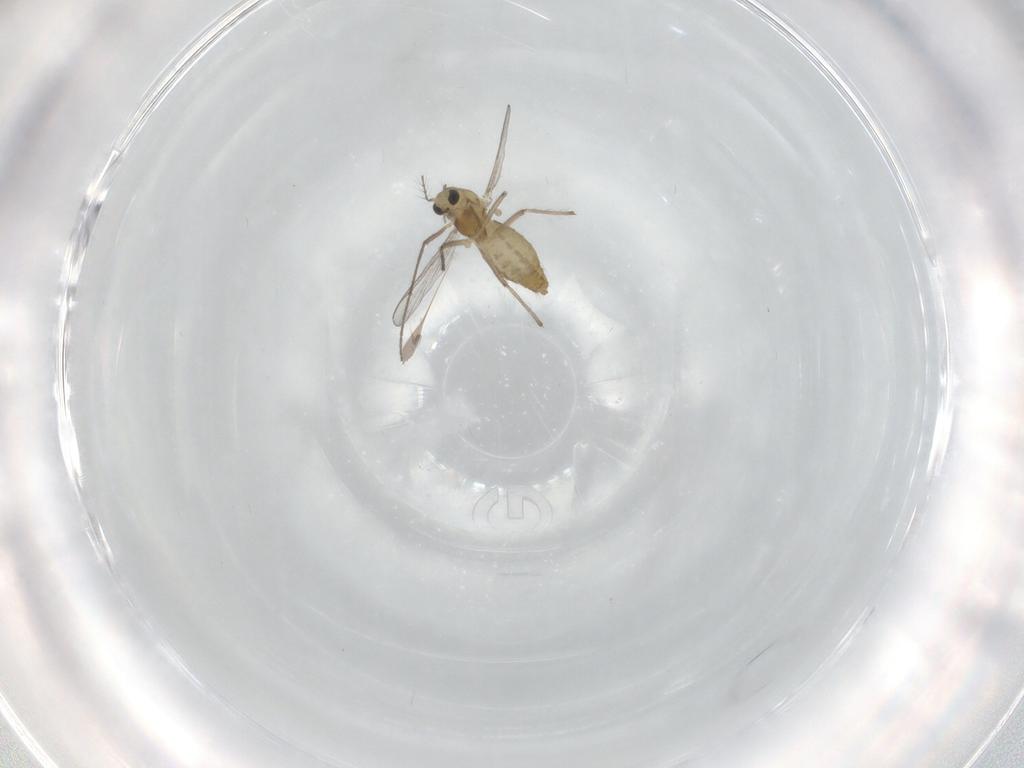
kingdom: Animalia
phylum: Arthropoda
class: Insecta
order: Diptera
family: Chironomidae
